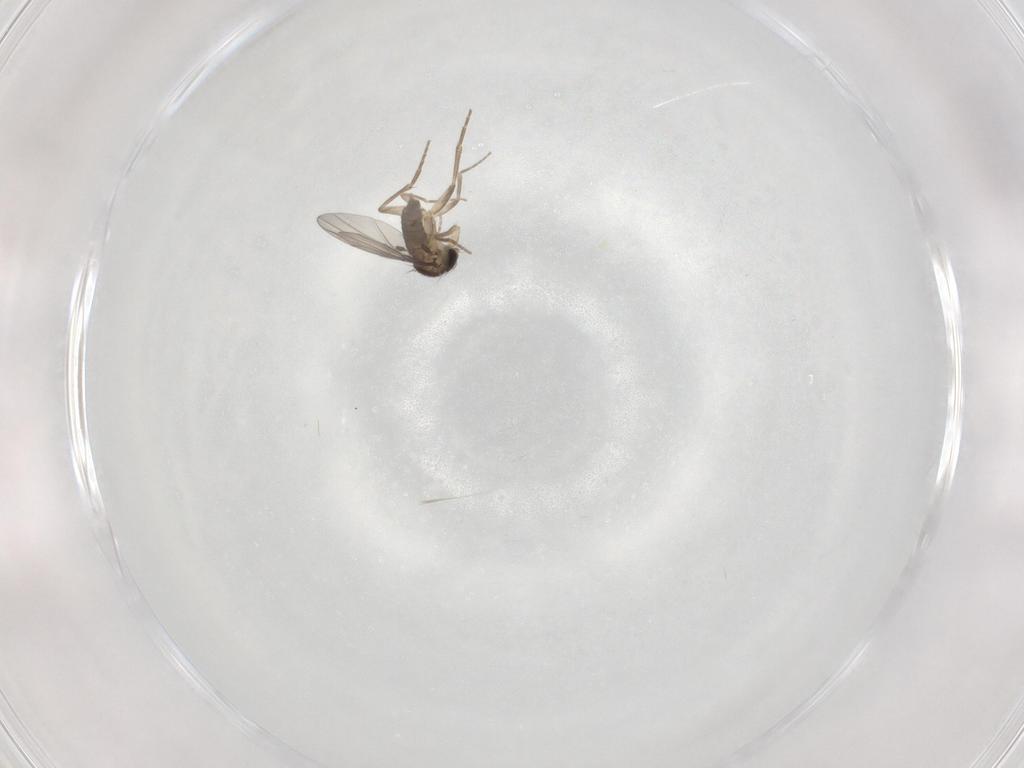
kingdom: Animalia
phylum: Arthropoda
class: Insecta
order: Diptera
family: Phoridae
